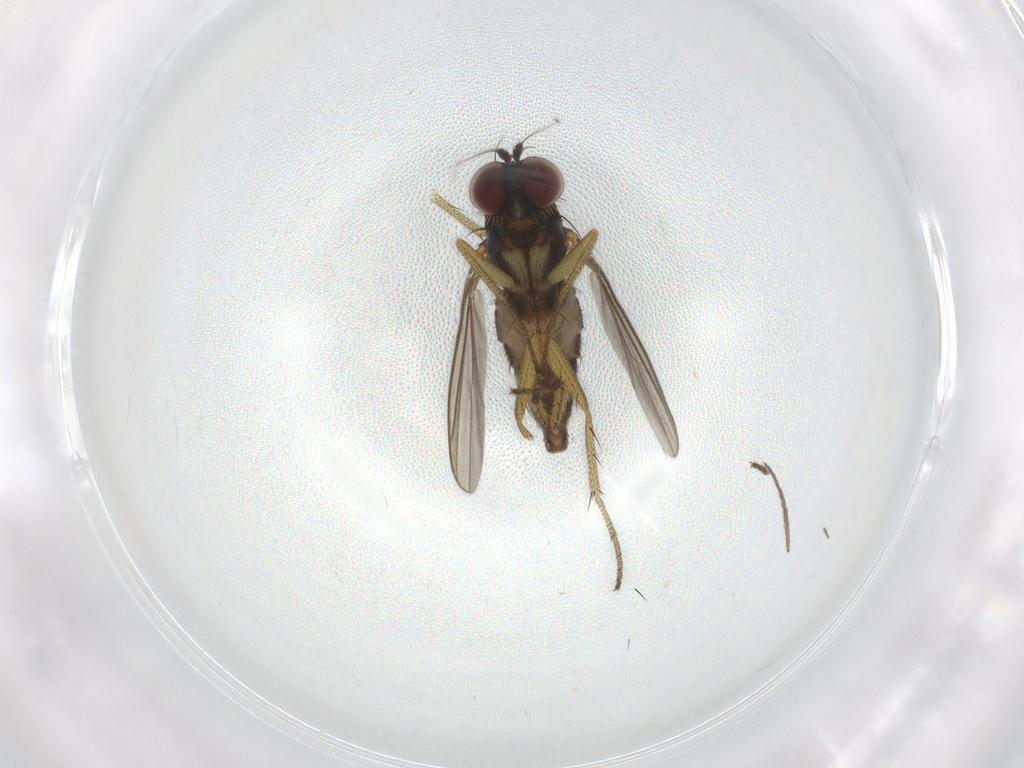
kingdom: Animalia
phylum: Arthropoda
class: Insecta
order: Diptera
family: Dolichopodidae
